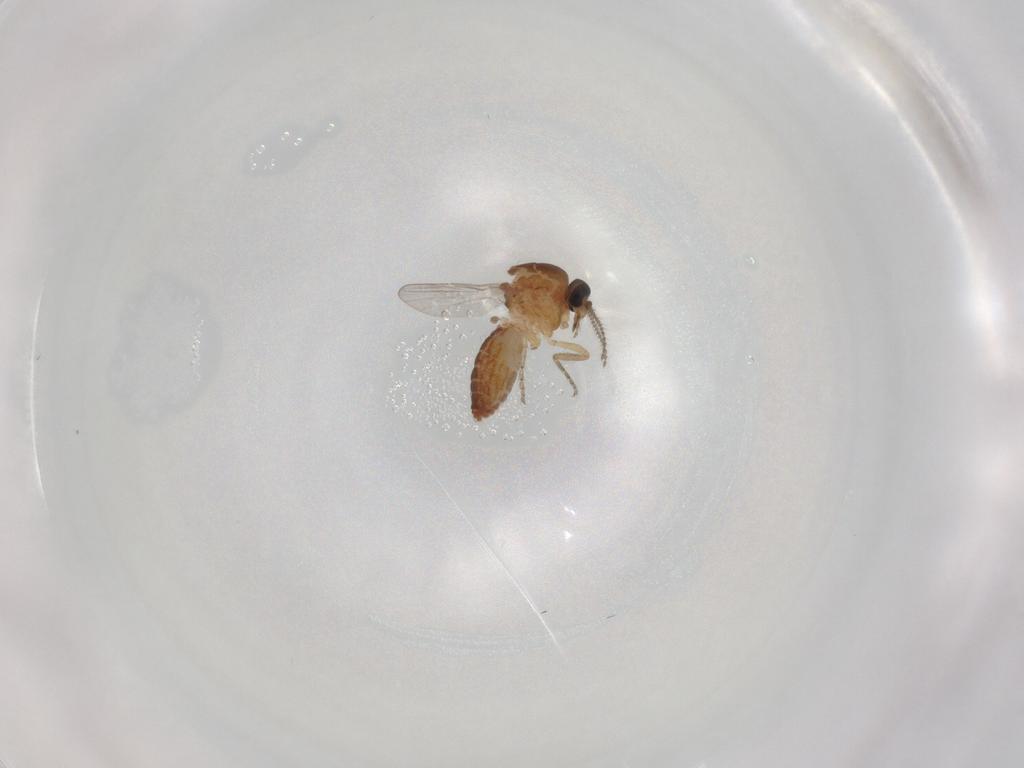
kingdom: Animalia
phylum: Arthropoda
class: Insecta
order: Diptera
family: Ceratopogonidae
